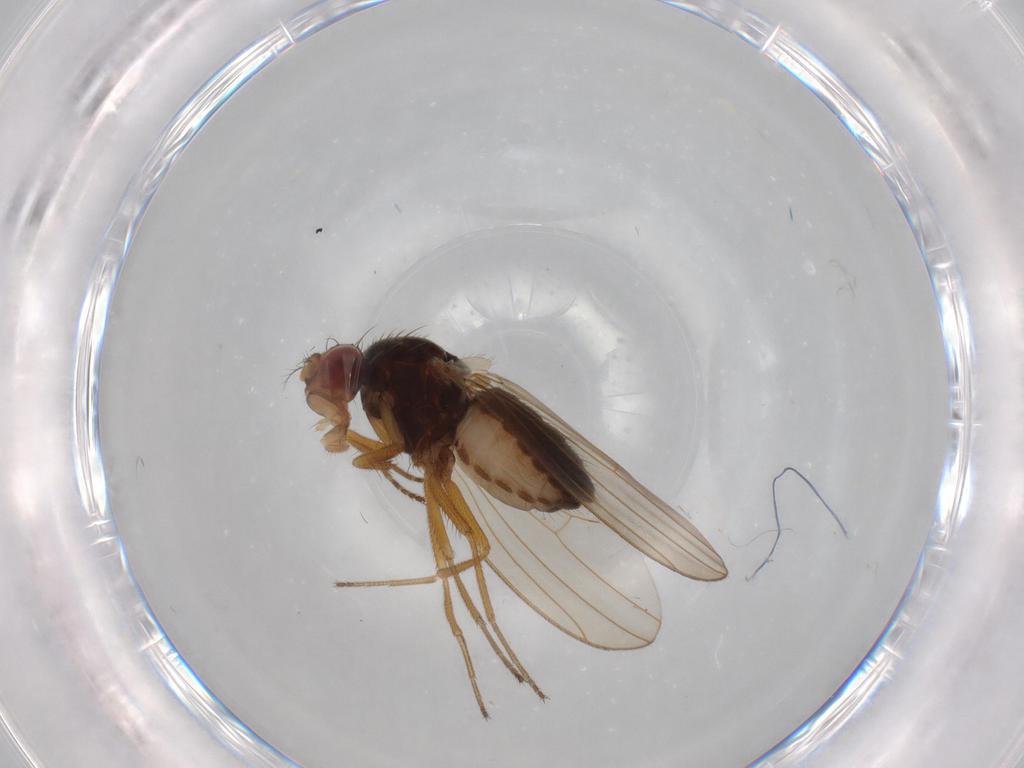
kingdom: Animalia
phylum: Arthropoda
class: Insecta
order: Diptera
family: Drosophilidae
